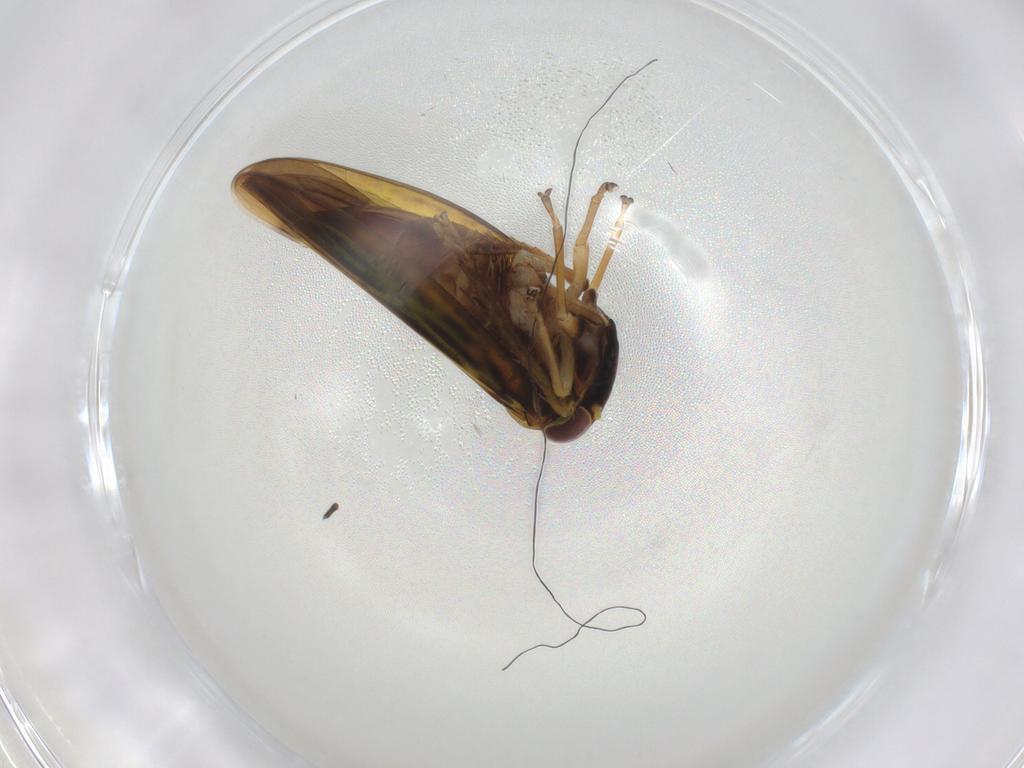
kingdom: Animalia
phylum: Arthropoda
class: Insecta
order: Hemiptera
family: Cicadellidae
